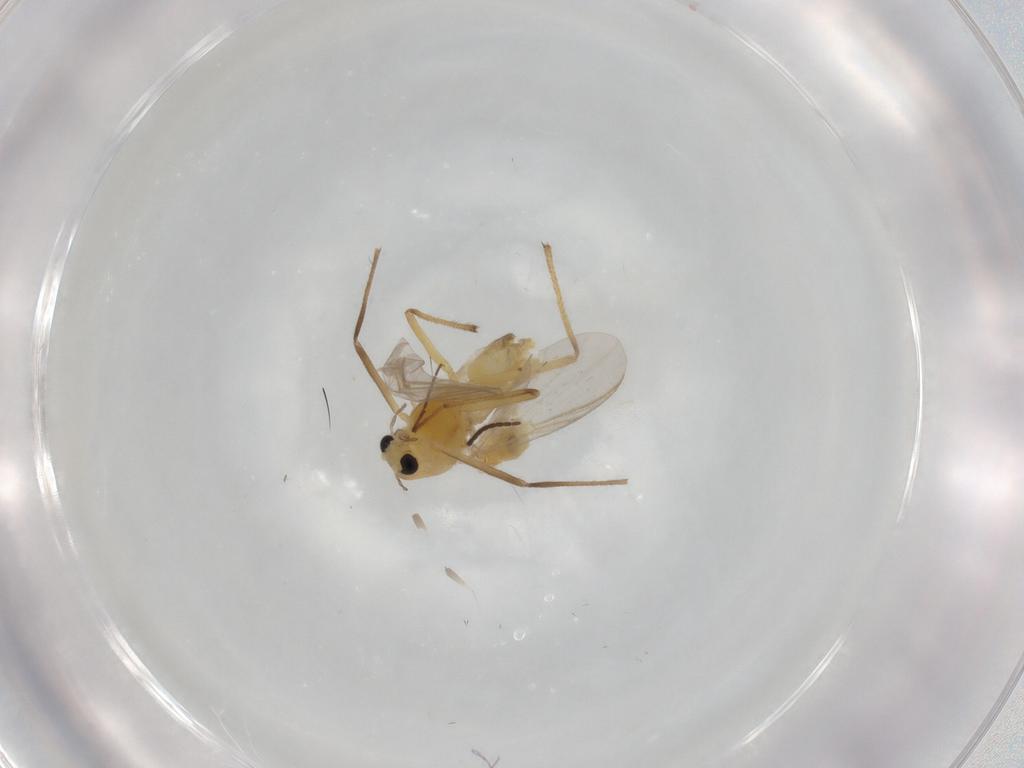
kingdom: Animalia
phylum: Arthropoda
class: Insecta
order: Diptera
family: Chironomidae
